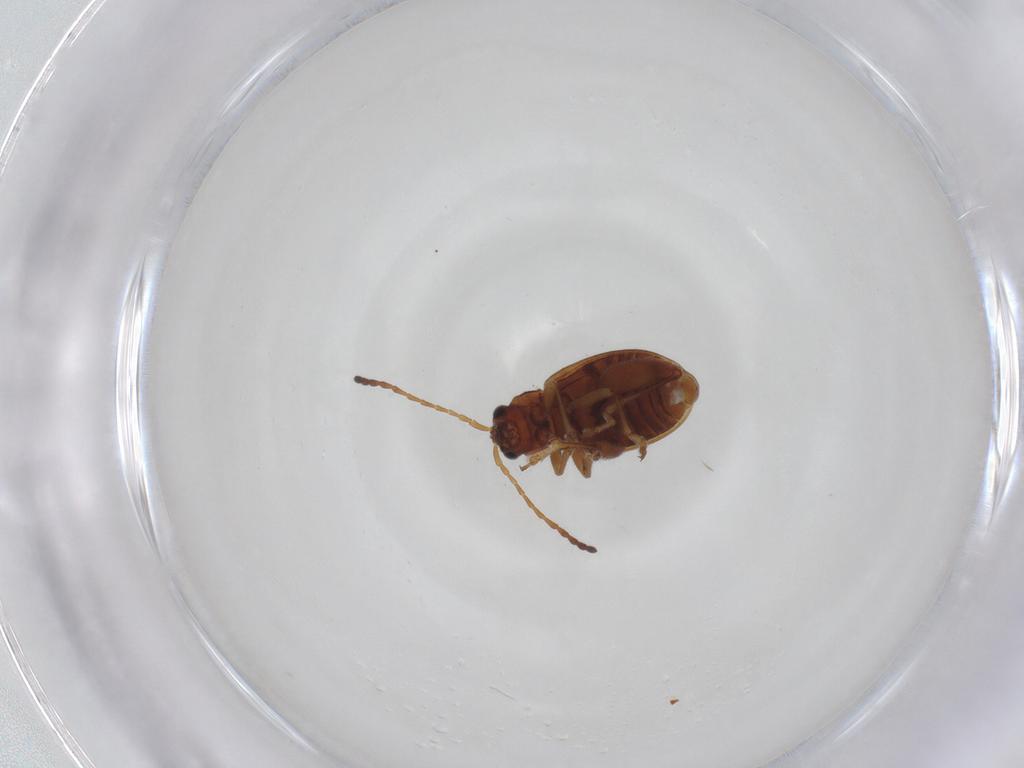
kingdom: Animalia
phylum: Arthropoda
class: Insecta
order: Coleoptera
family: Chrysomelidae
